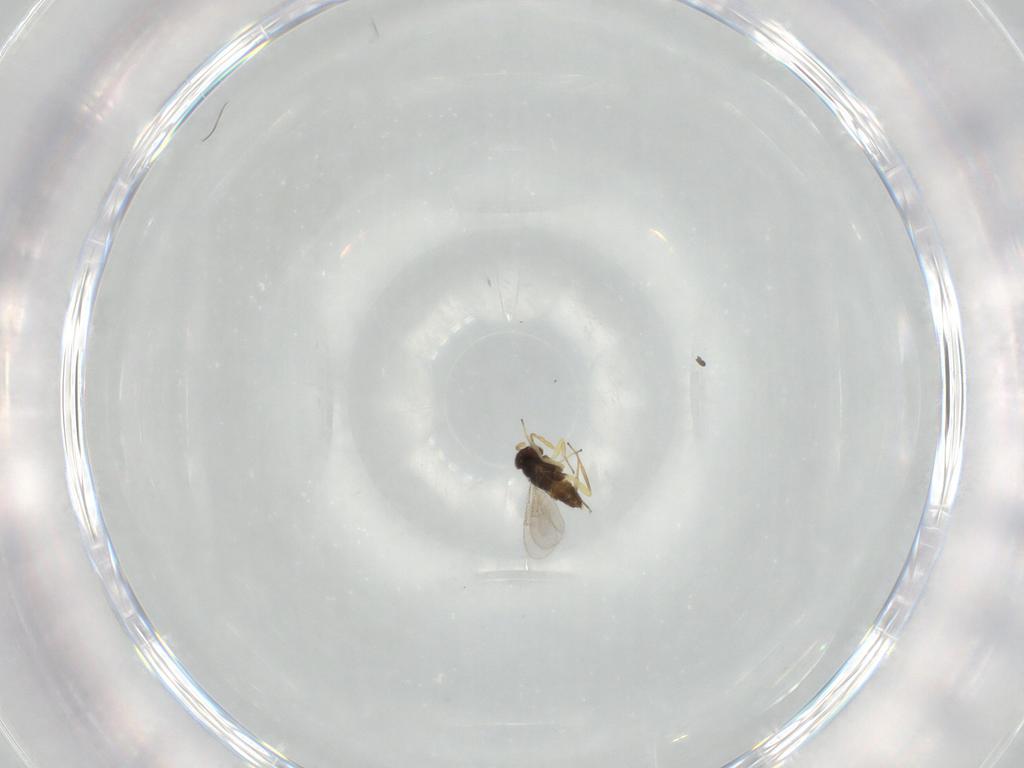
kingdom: Animalia
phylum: Arthropoda
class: Insecta
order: Hymenoptera
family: Aphelinidae
